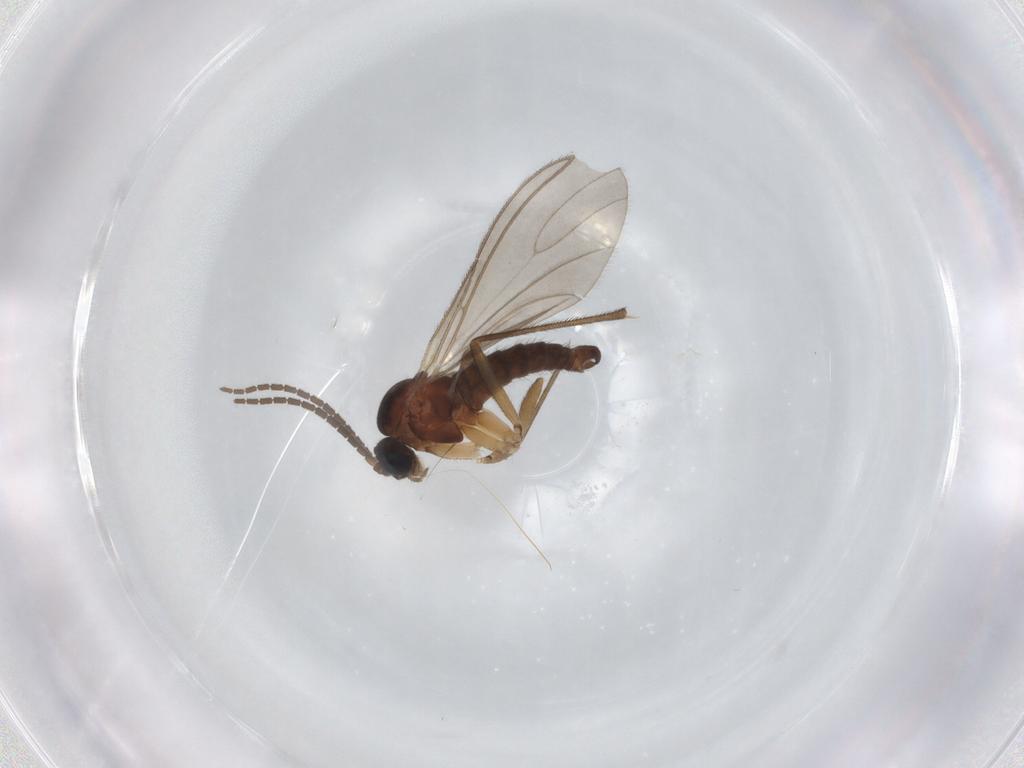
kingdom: Animalia
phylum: Arthropoda
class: Insecta
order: Diptera
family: Sciaridae
